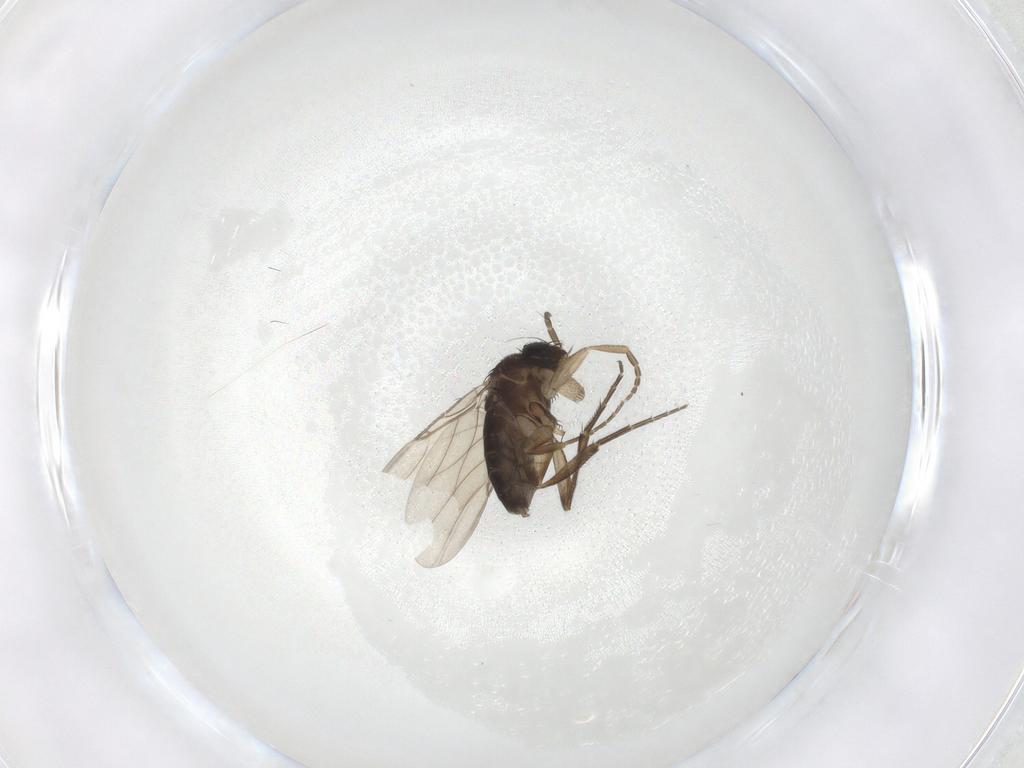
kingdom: Animalia
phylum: Arthropoda
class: Insecta
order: Diptera
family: Phoridae
